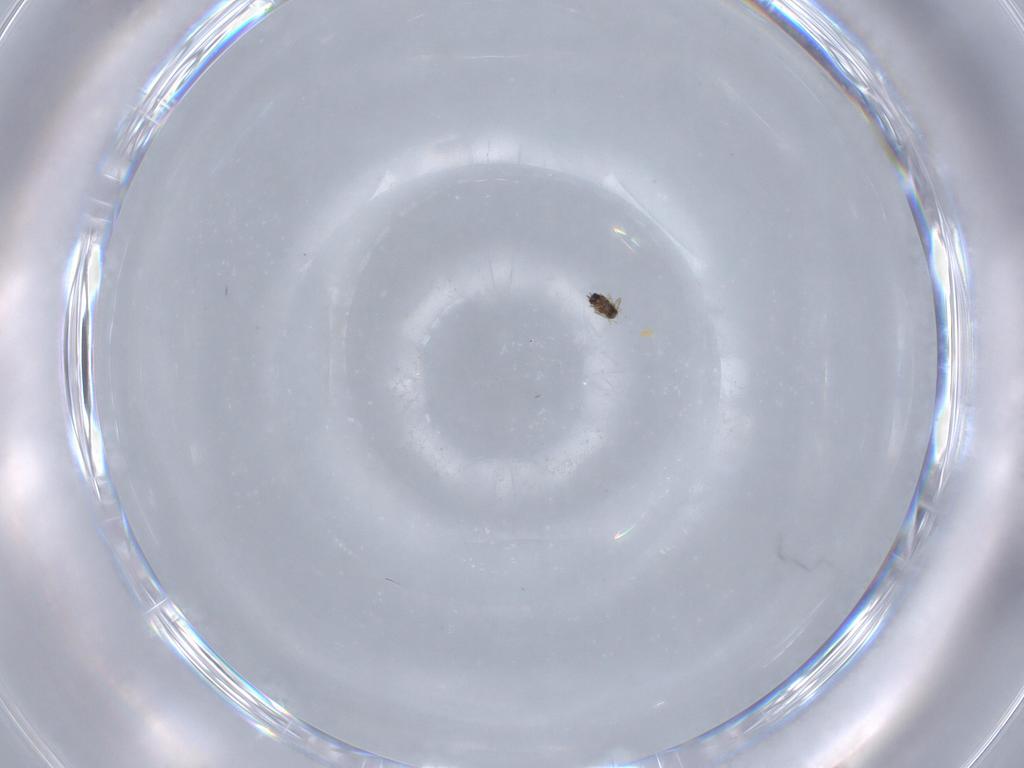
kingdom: Animalia
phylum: Arthropoda
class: Insecta
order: Hymenoptera
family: Mymaridae
